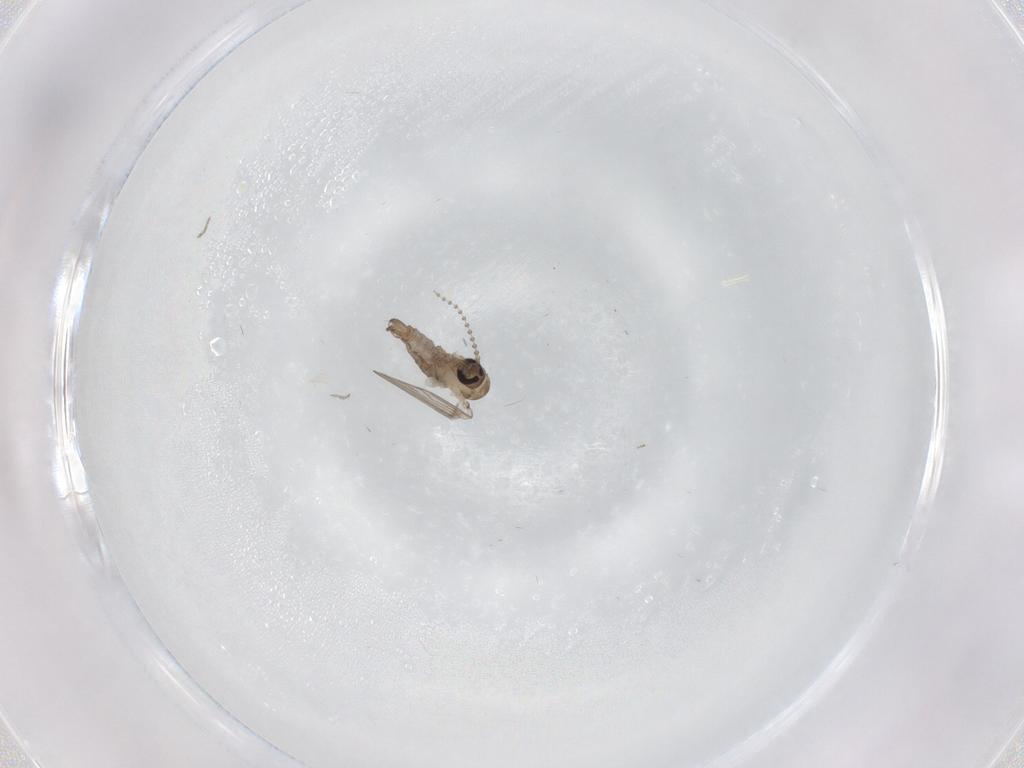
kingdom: Animalia
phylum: Arthropoda
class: Insecta
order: Diptera
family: Psychodidae
